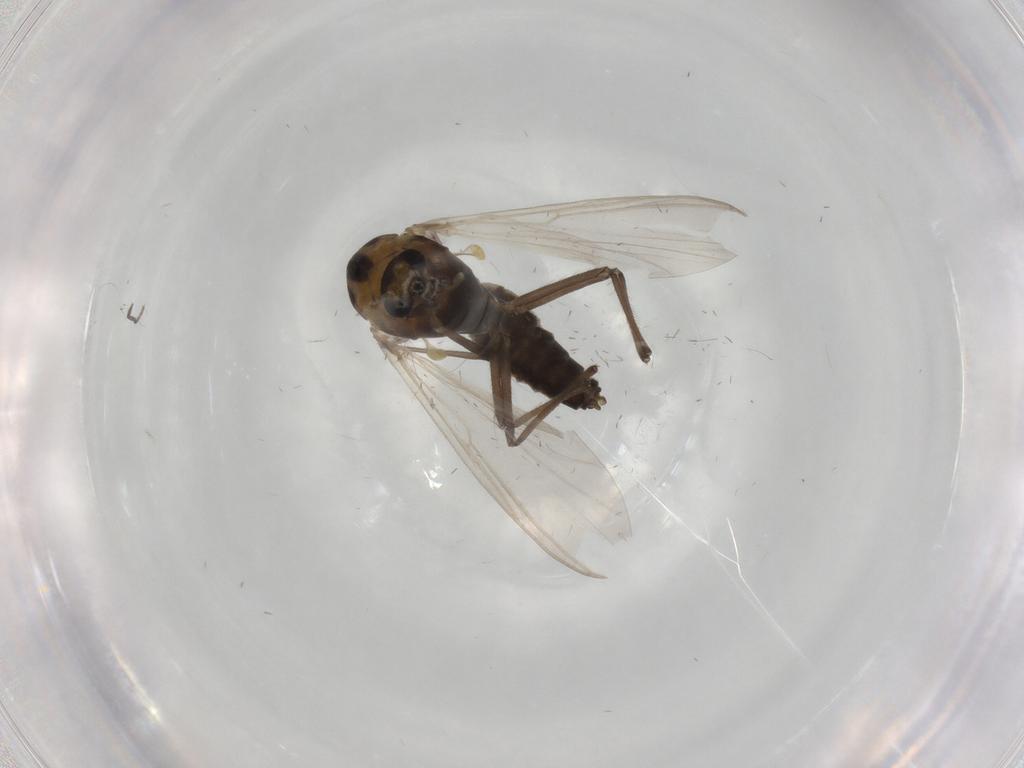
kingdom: Animalia
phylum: Arthropoda
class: Insecta
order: Diptera
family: Chironomidae
